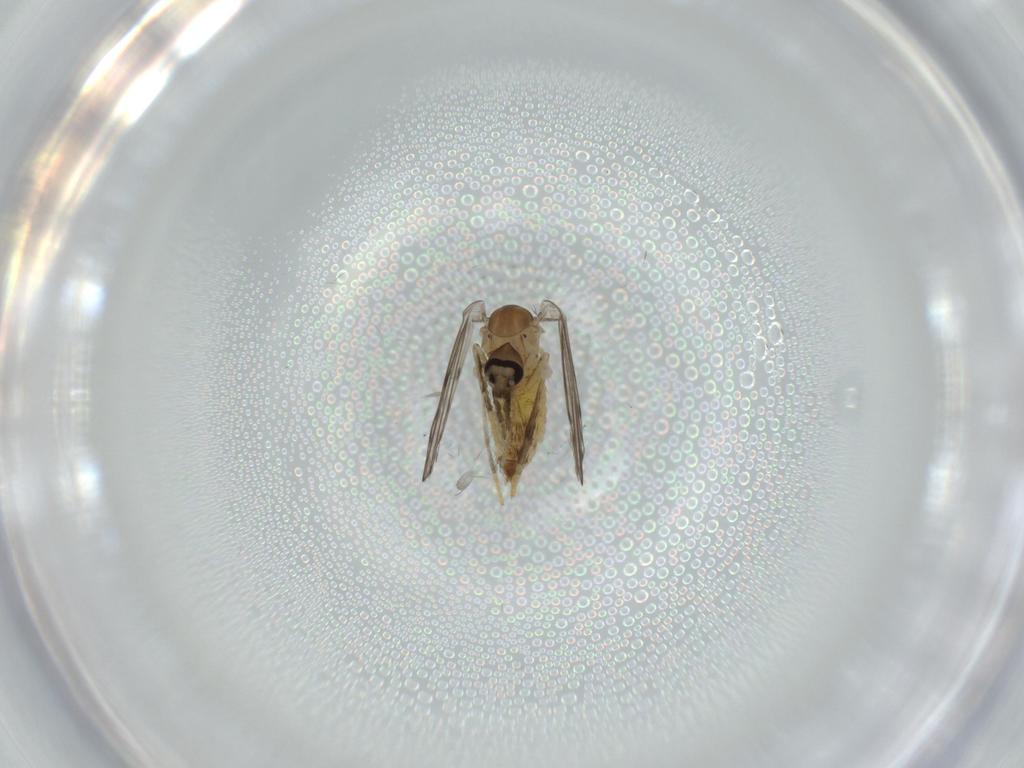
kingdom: Animalia
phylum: Arthropoda
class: Insecta
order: Diptera
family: Psychodidae
